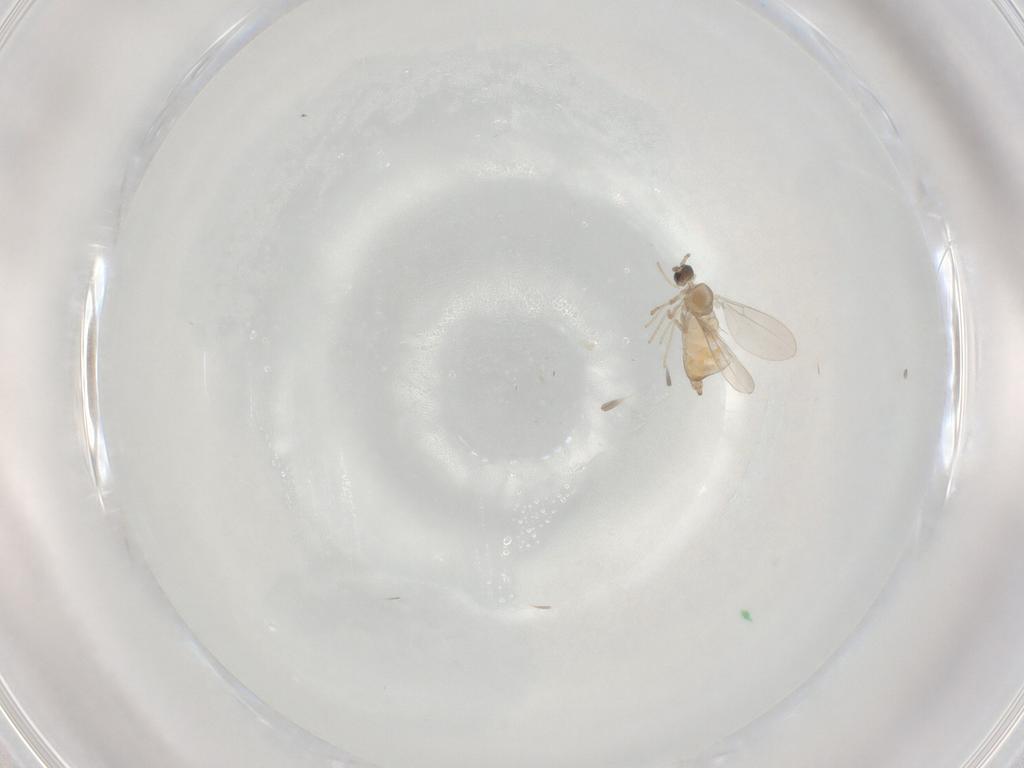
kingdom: Animalia
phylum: Arthropoda
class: Insecta
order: Diptera
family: Cecidomyiidae
